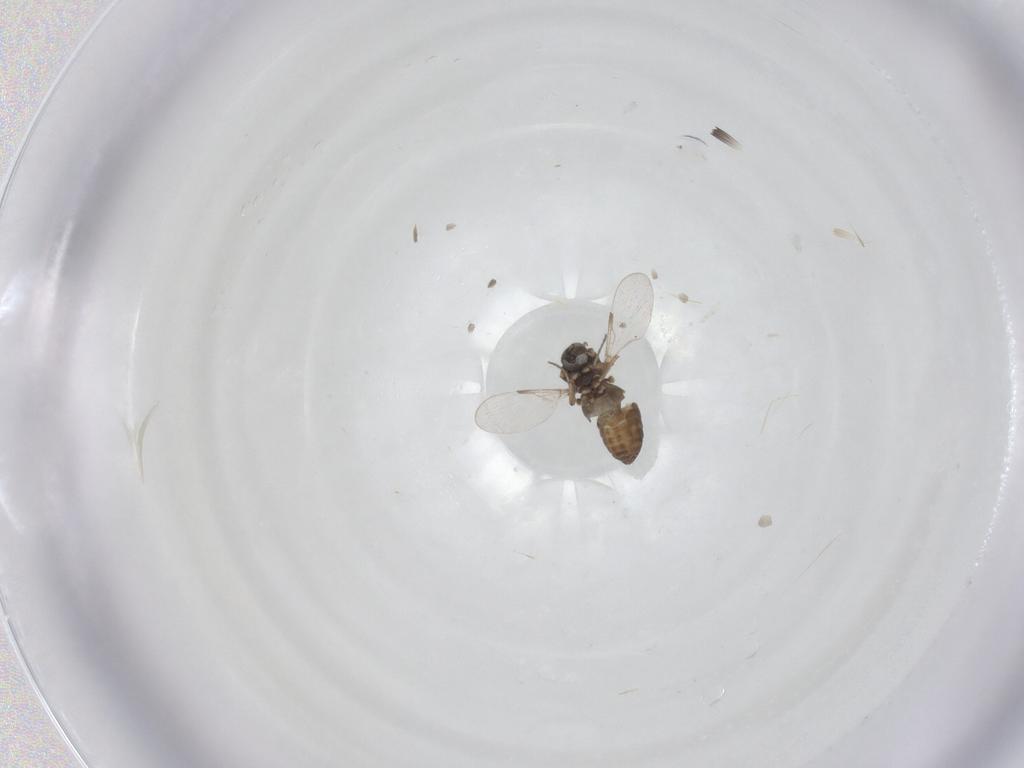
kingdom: Animalia
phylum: Arthropoda
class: Insecta
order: Diptera
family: Ceratopogonidae
